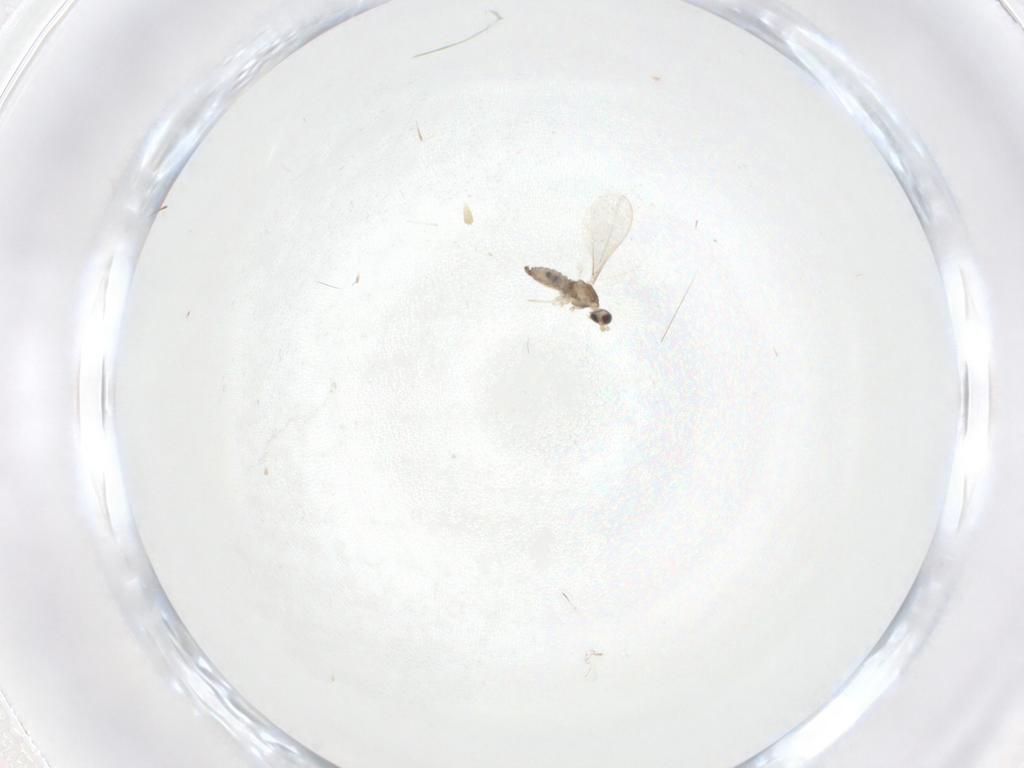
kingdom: Animalia
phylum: Arthropoda
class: Insecta
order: Diptera
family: Cecidomyiidae
